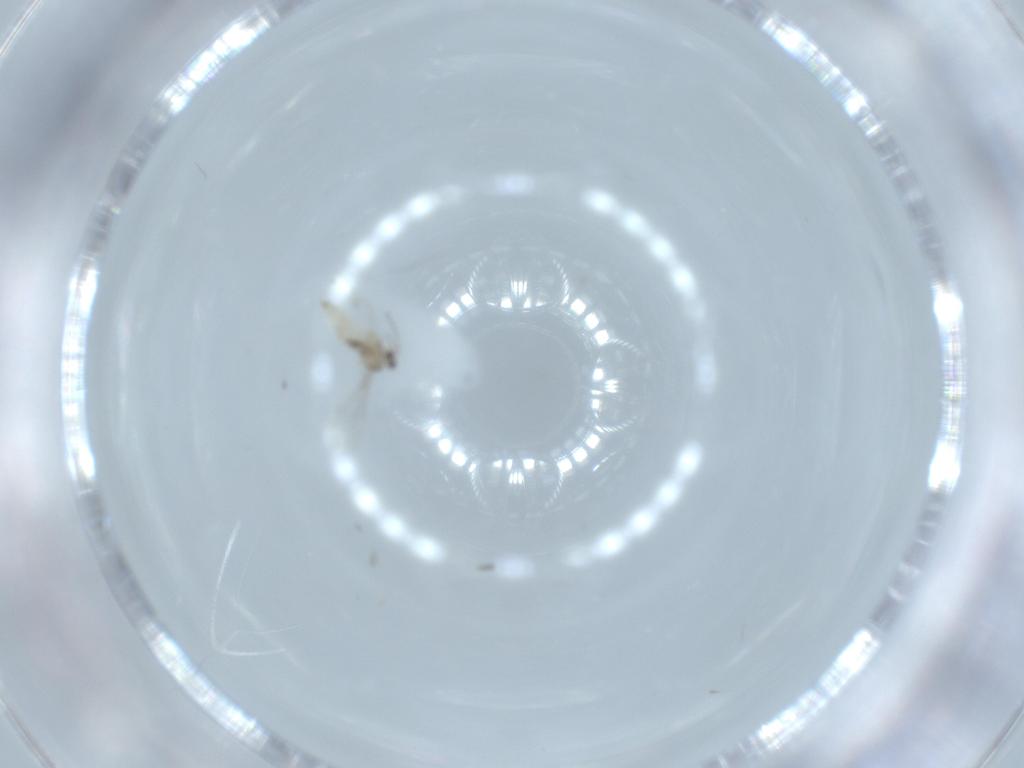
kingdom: Animalia
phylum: Arthropoda
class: Insecta
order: Diptera
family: Cecidomyiidae
